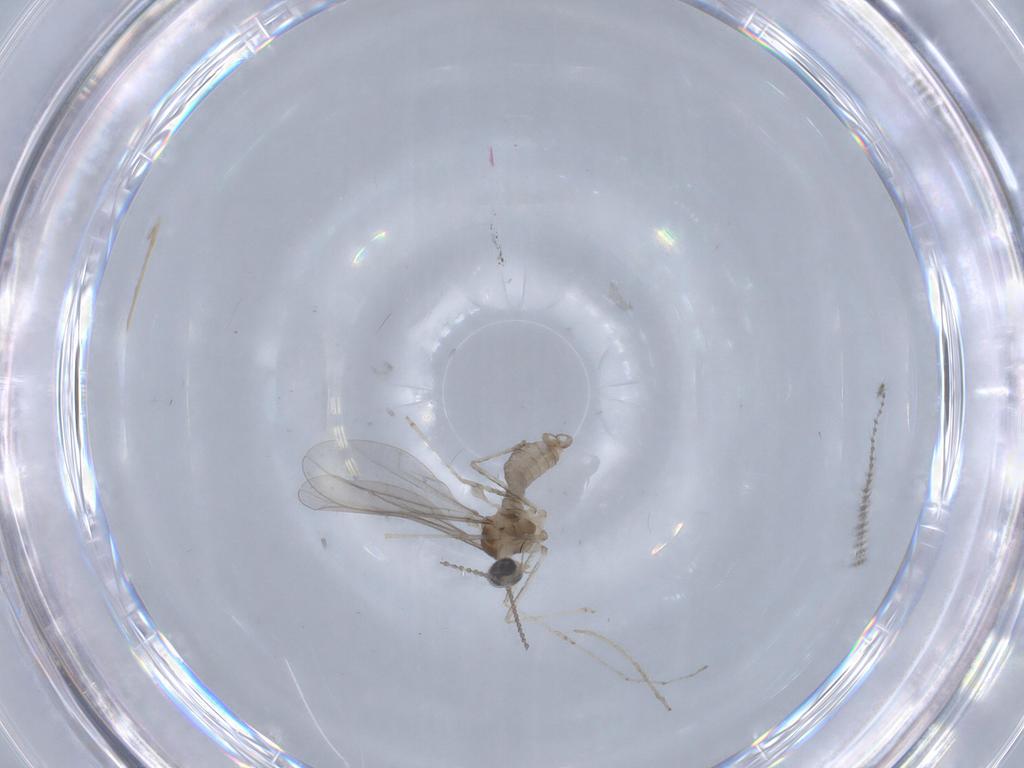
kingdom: Animalia
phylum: Arthropoda
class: Insecta
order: Diptera
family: Cecidomyiidae
